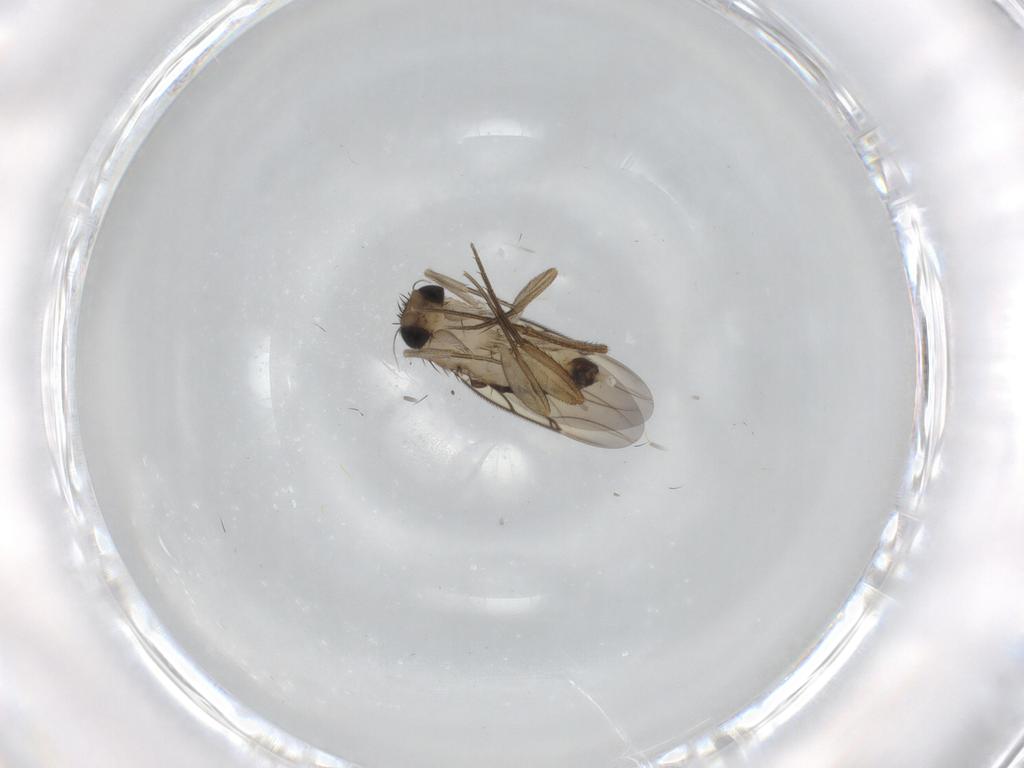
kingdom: Animalia
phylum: Arthropoda
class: Insecta
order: Diptera
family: Phoridae
